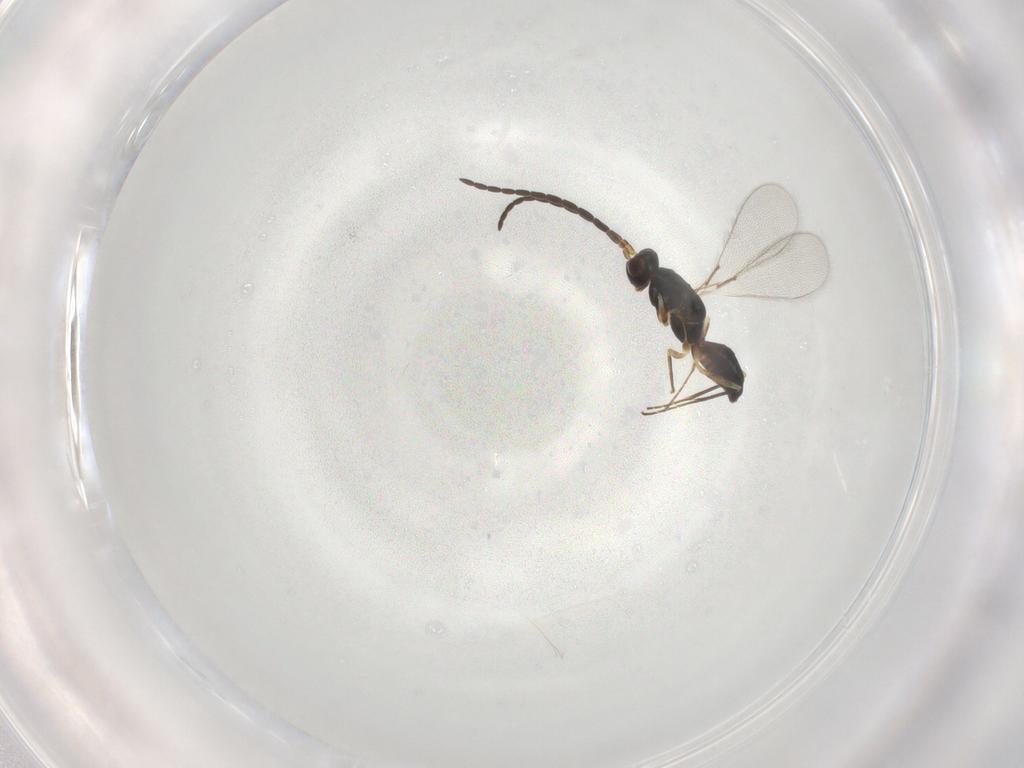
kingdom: Animalia
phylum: Arthropoda
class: Insecta
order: Hymenoptera
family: Mymaridae
